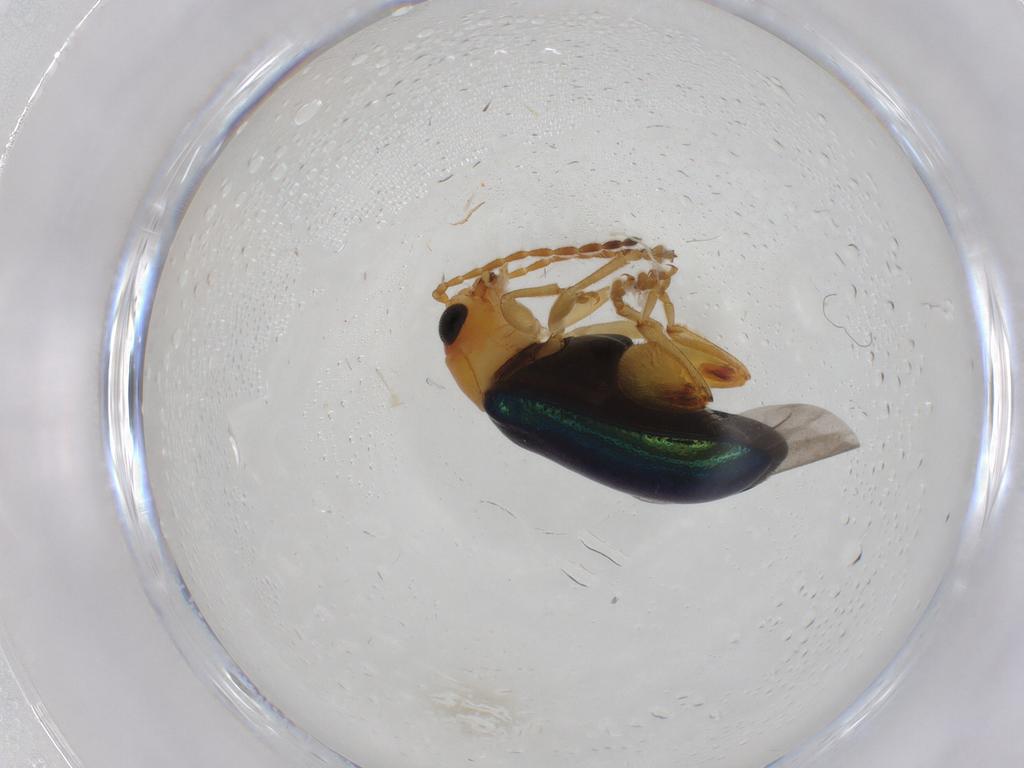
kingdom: Animalia
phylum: Arthropoda
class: Insecta
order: Coleoptera
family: Chrysomelidae
